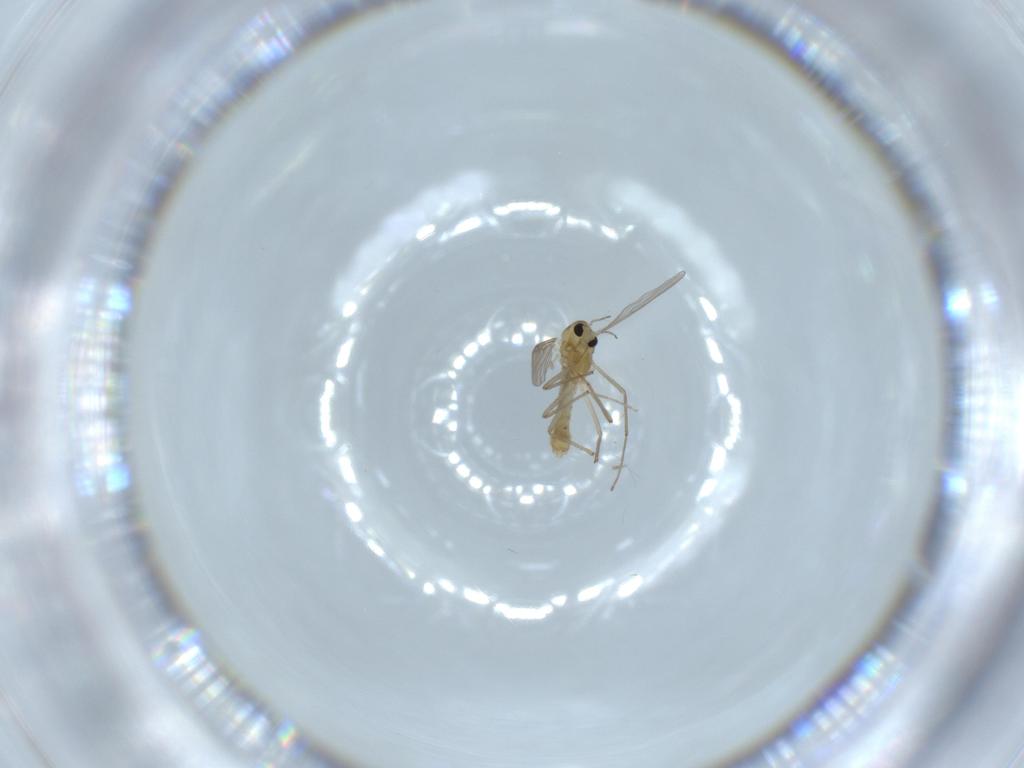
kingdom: Animalia
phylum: Arthropoda
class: Insecta
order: Diptera
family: Chironomidae
